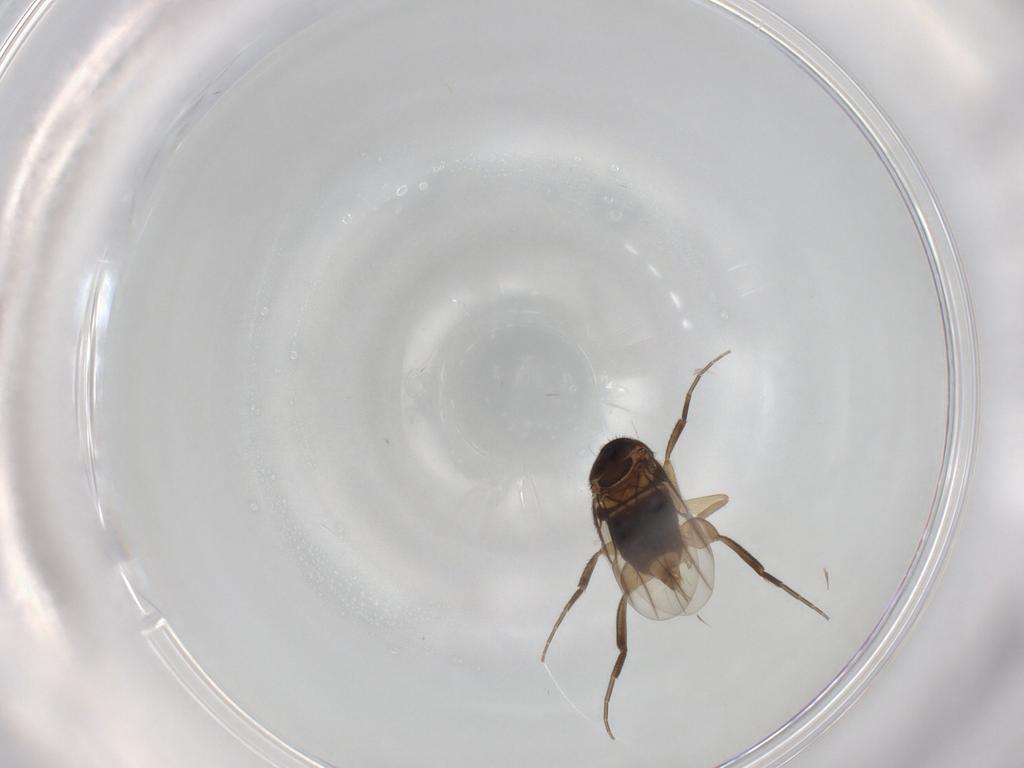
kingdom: Animalia
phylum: Arthropoda
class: Insecta
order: Diptera
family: Phoridae
